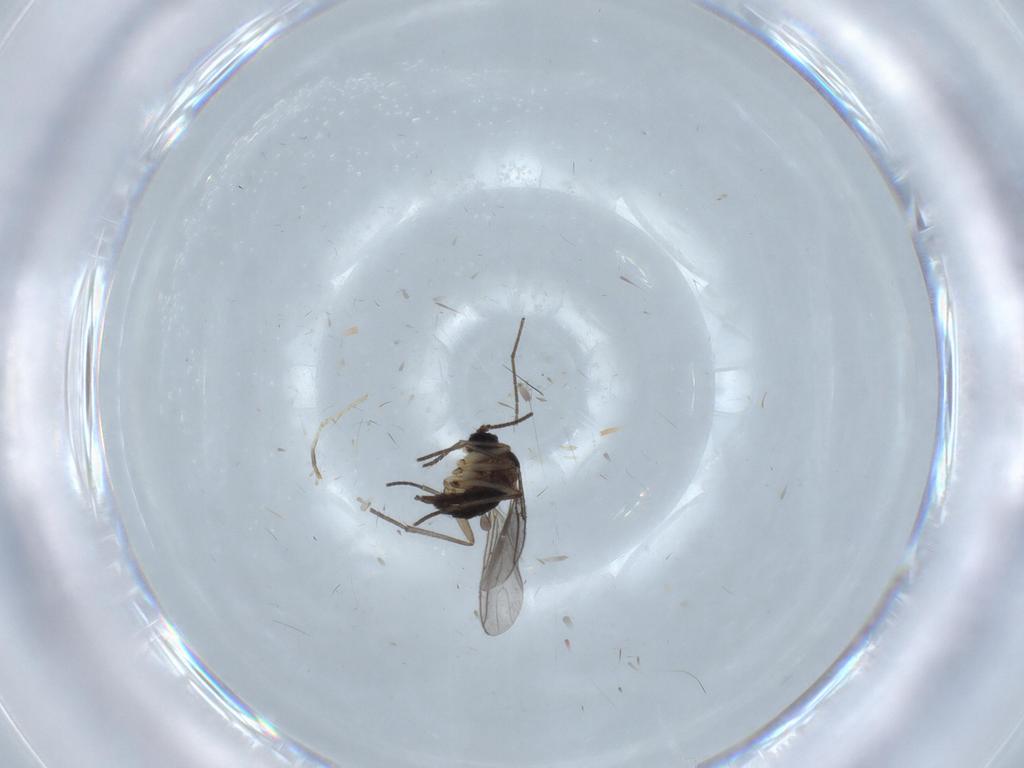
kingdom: Animalia
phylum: Arthropoda
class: Insecta
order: Diptera
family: Sciaridae
